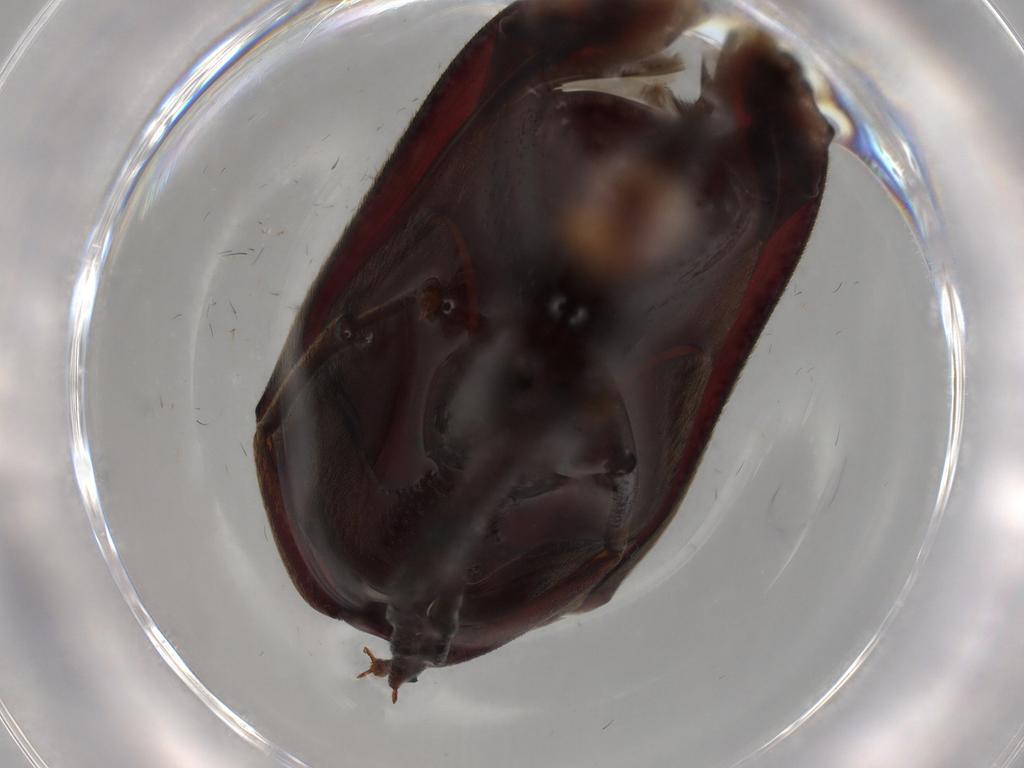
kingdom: Animalia
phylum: Arthropoda
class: Insecta
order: Coleoptera
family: Mordellidae
